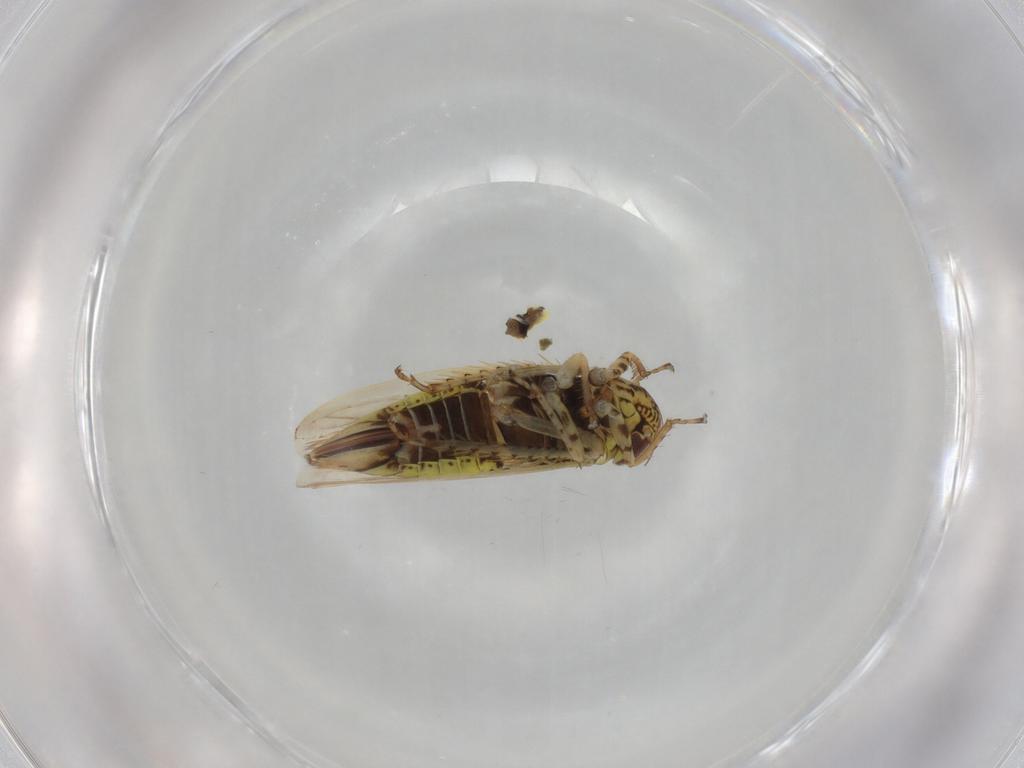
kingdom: Animalia
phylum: Arthropoda
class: Insecta
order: Hemiptera
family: Cicadellidae
